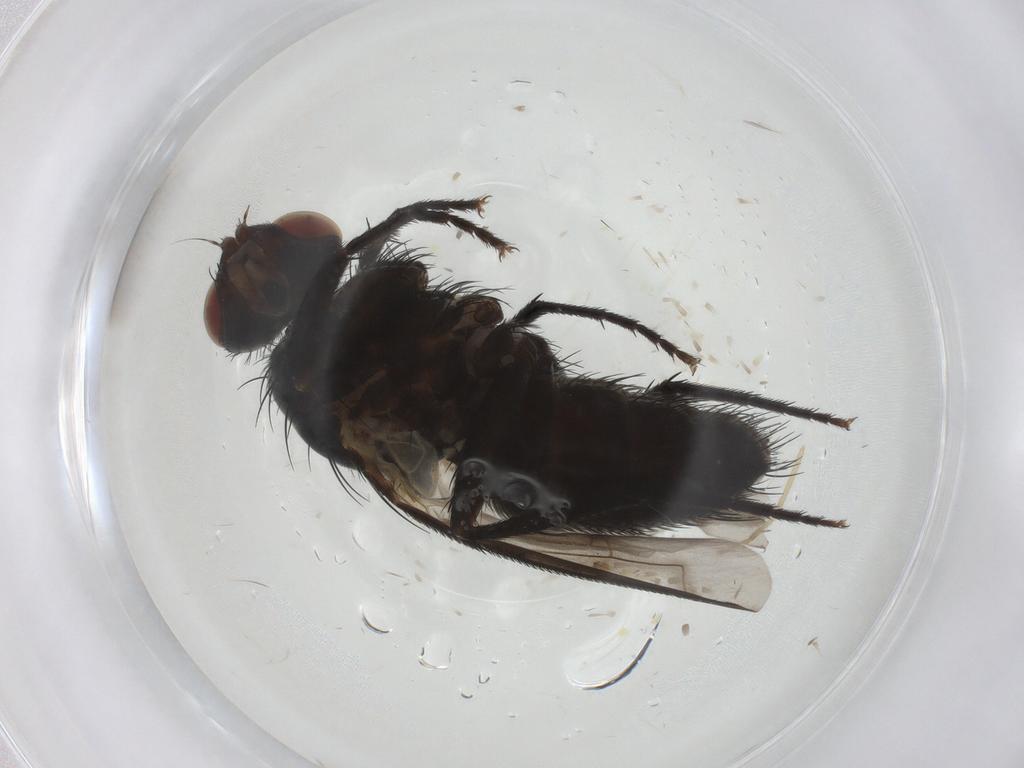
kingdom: Animalia
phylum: Arthropoda
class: Insecta
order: Diptera
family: Tachinidae
